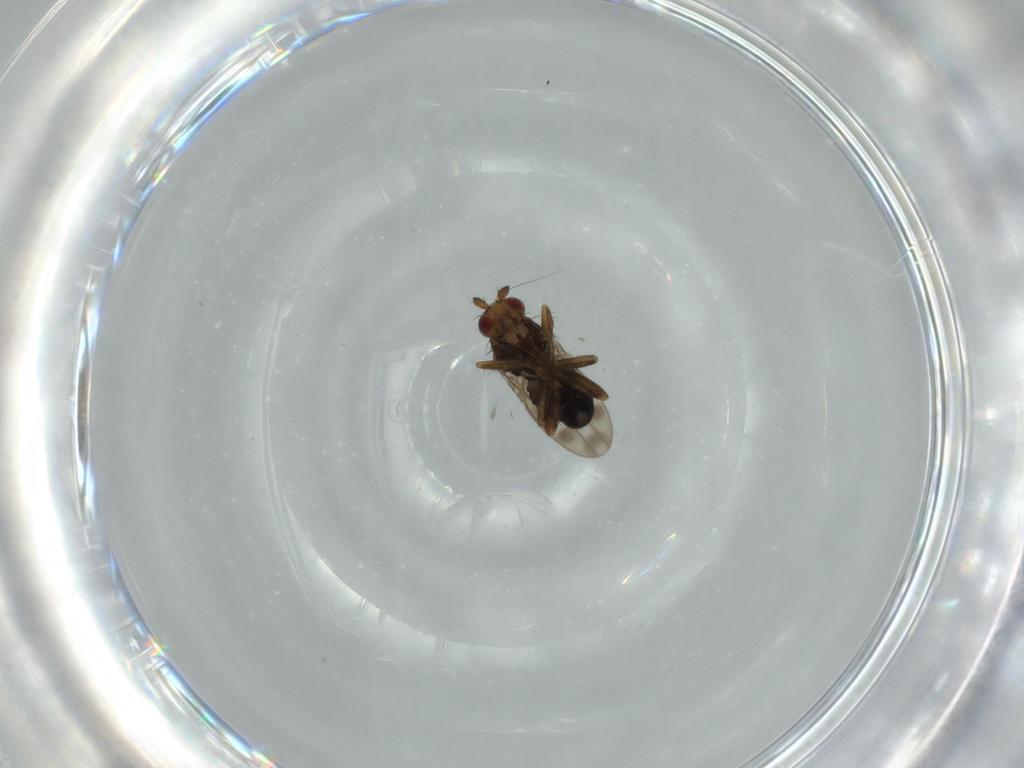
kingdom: Animalia
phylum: Arthropoda
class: Insecta
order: Diptera
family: Sphaeroceridae
